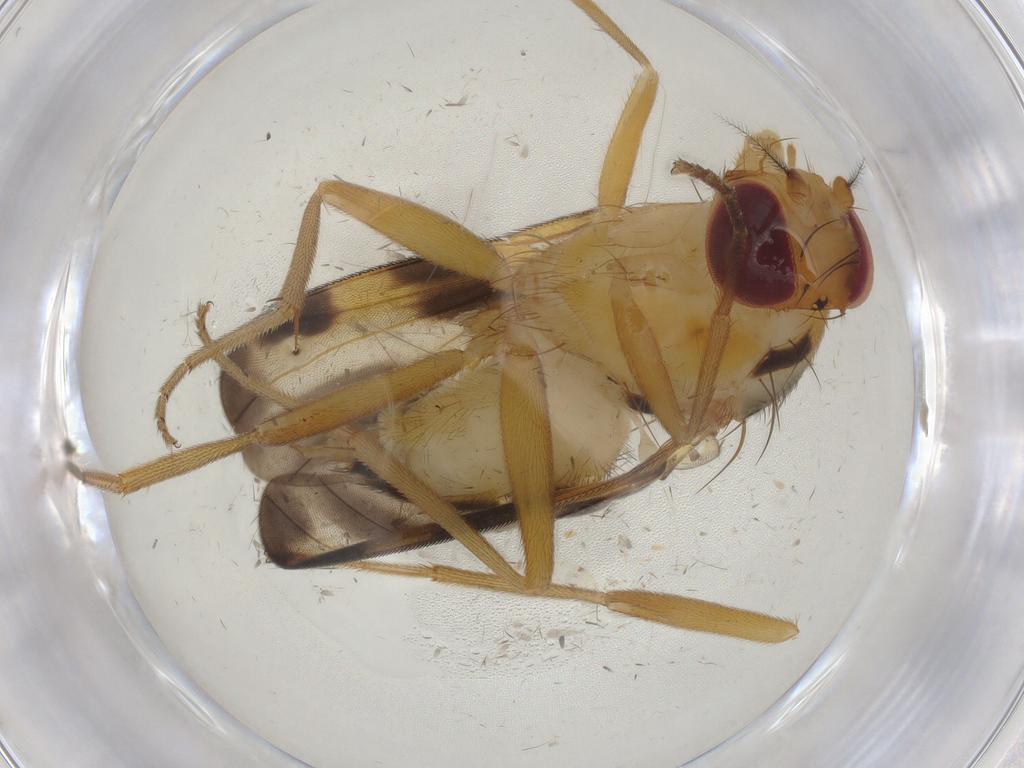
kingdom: Animalia
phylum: Arthropoda
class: Insecta
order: Diptera
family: Clusiidae
